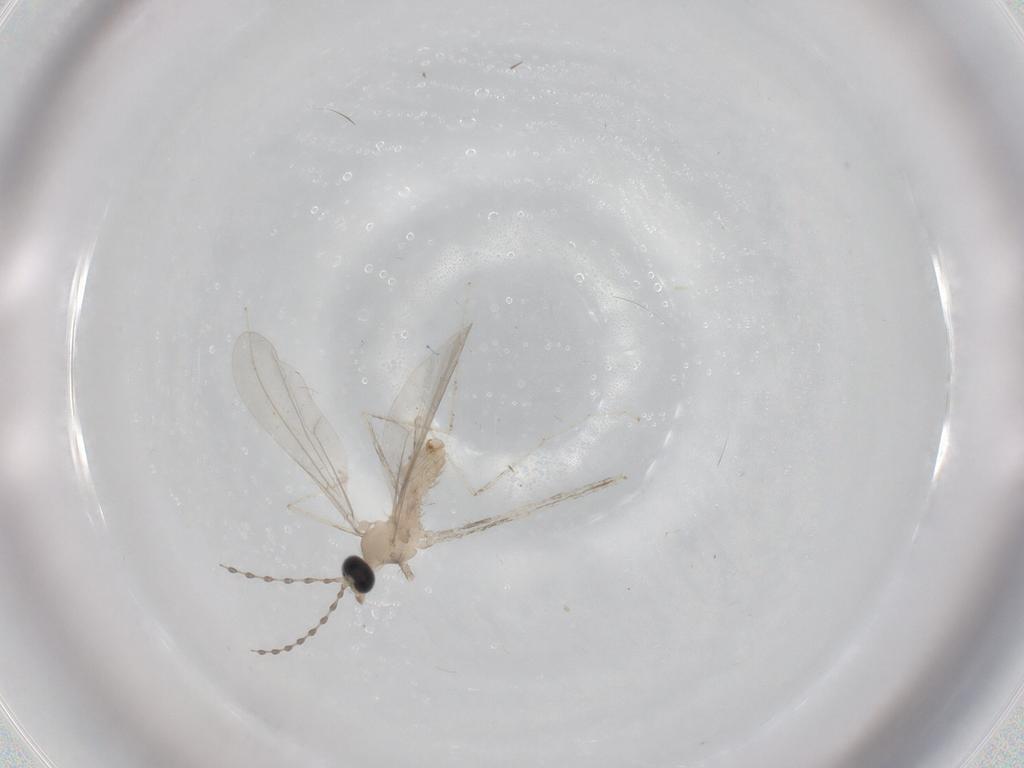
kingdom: Animalia
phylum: Arthropoda
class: Insecta
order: Diptera
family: Cecidomyiidae
